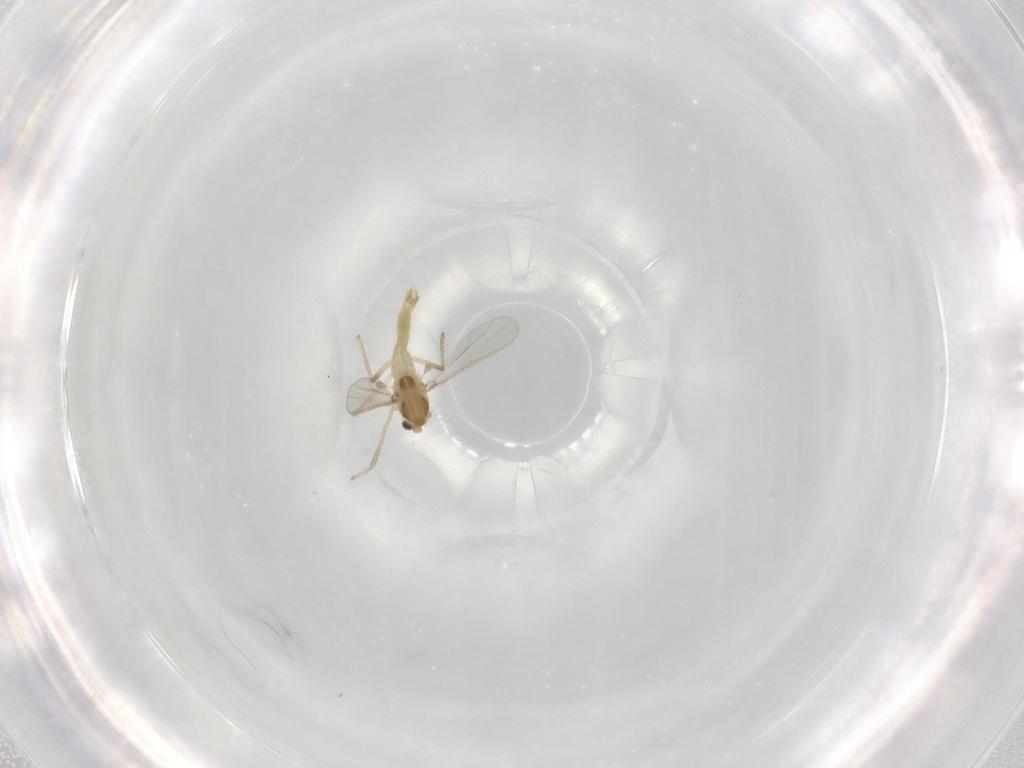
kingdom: Animalia
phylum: Arthropoda
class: Insecta
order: Diptera
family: Chironomidae
